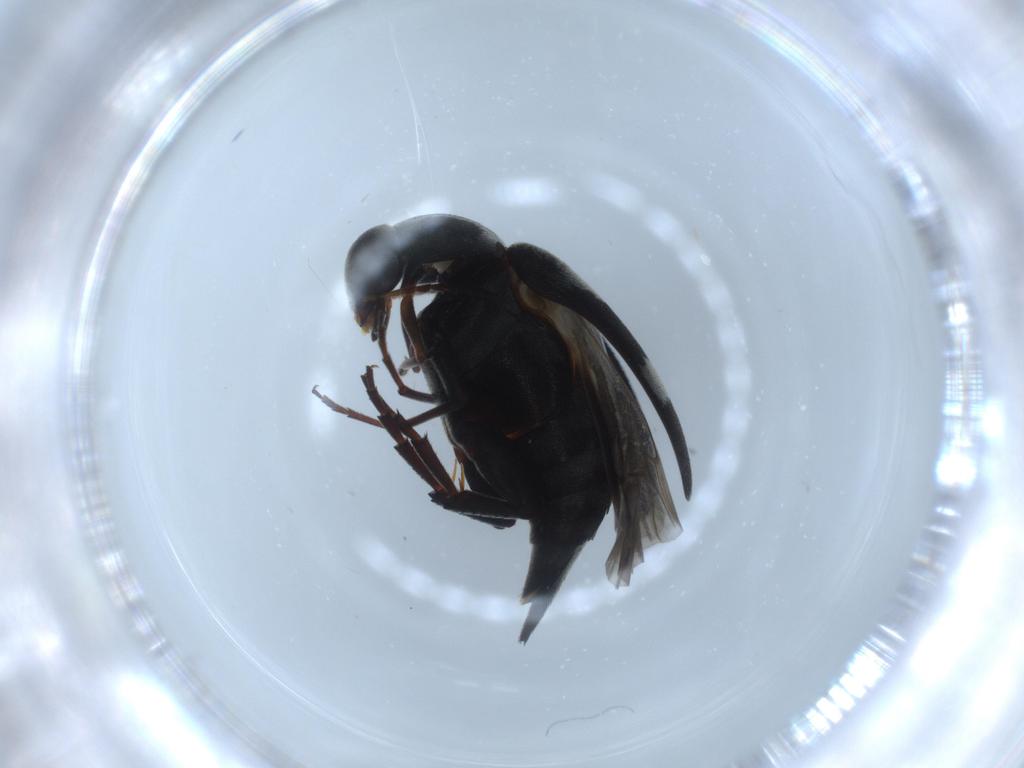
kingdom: Animalia
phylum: Arthropoda
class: Insecta
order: Coleoptera
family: Mordellidae
